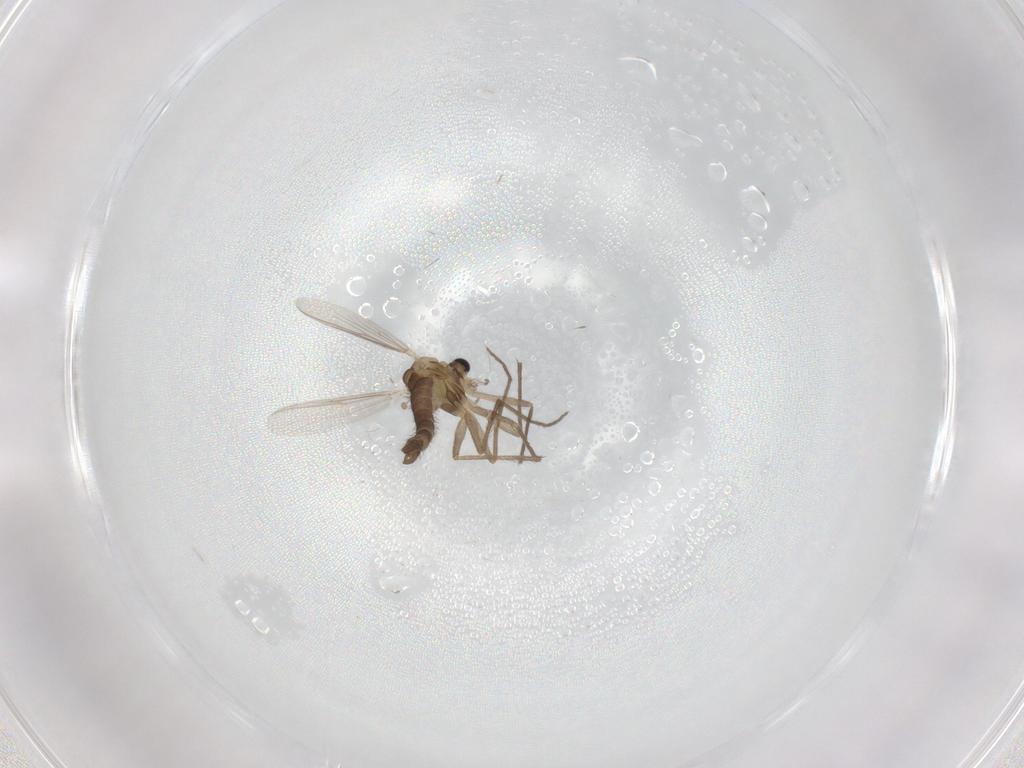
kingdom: Animalia
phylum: Arthropoda
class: Insecta
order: Diptera
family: Chironomidae
